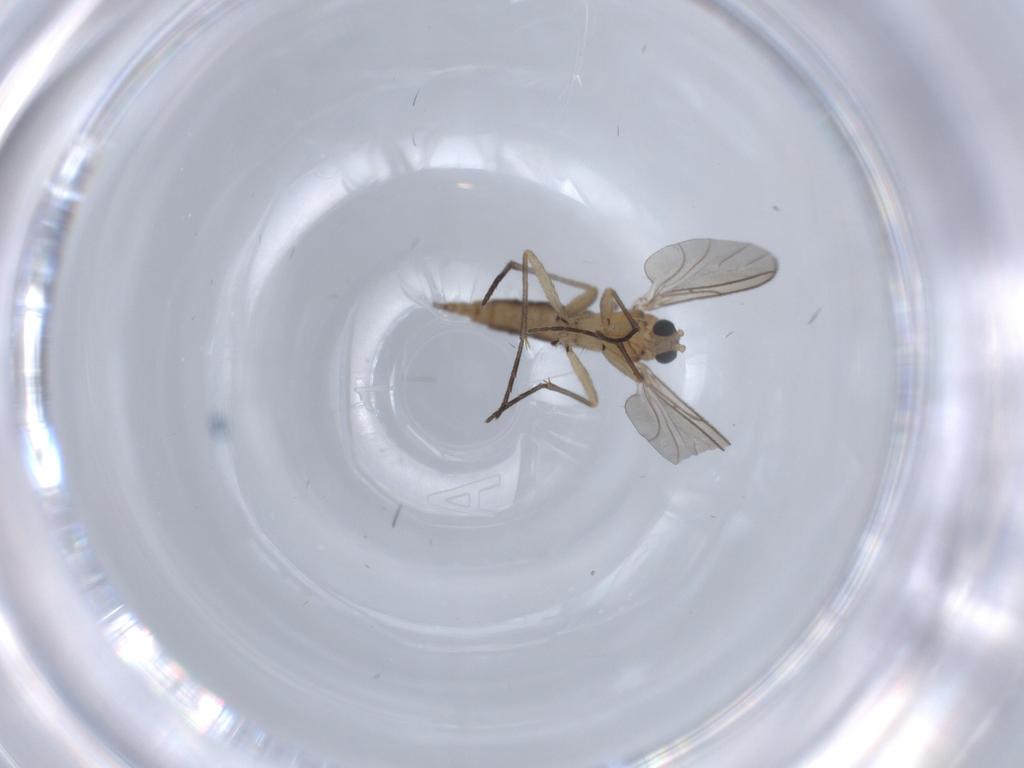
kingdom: Animalia
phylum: Arthropoda
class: Insecta
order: Diptera
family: Sciaridae
